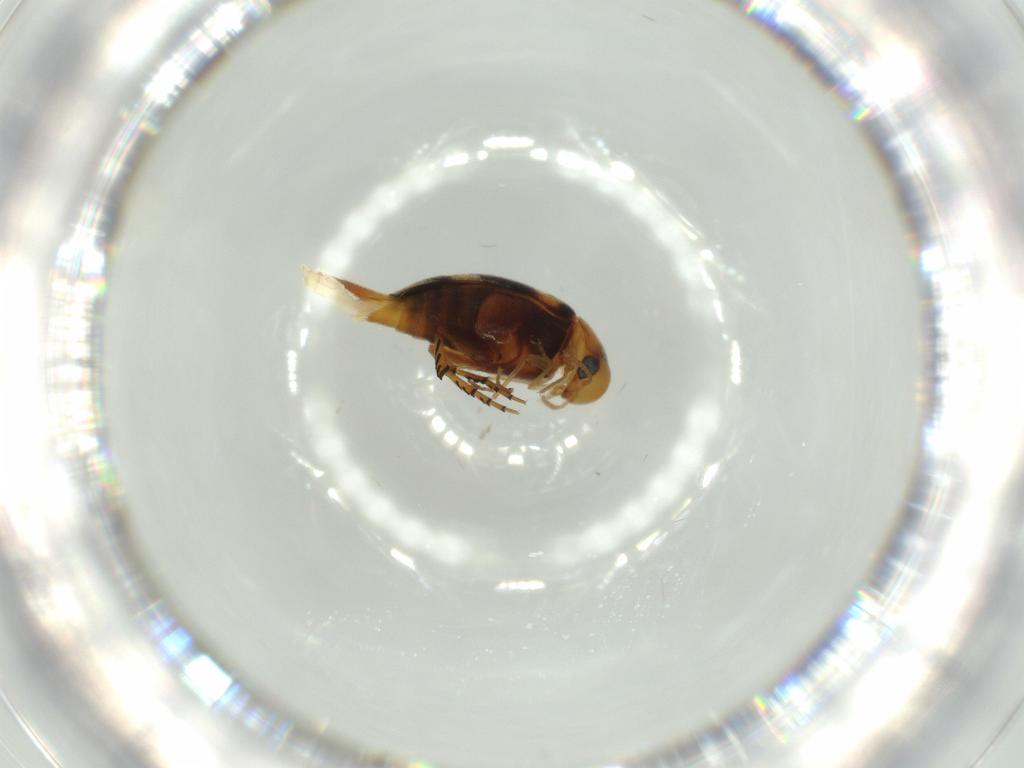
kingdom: Animalia
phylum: Arthropoda
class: Insecta
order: Coleoptera
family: Mordellidae
